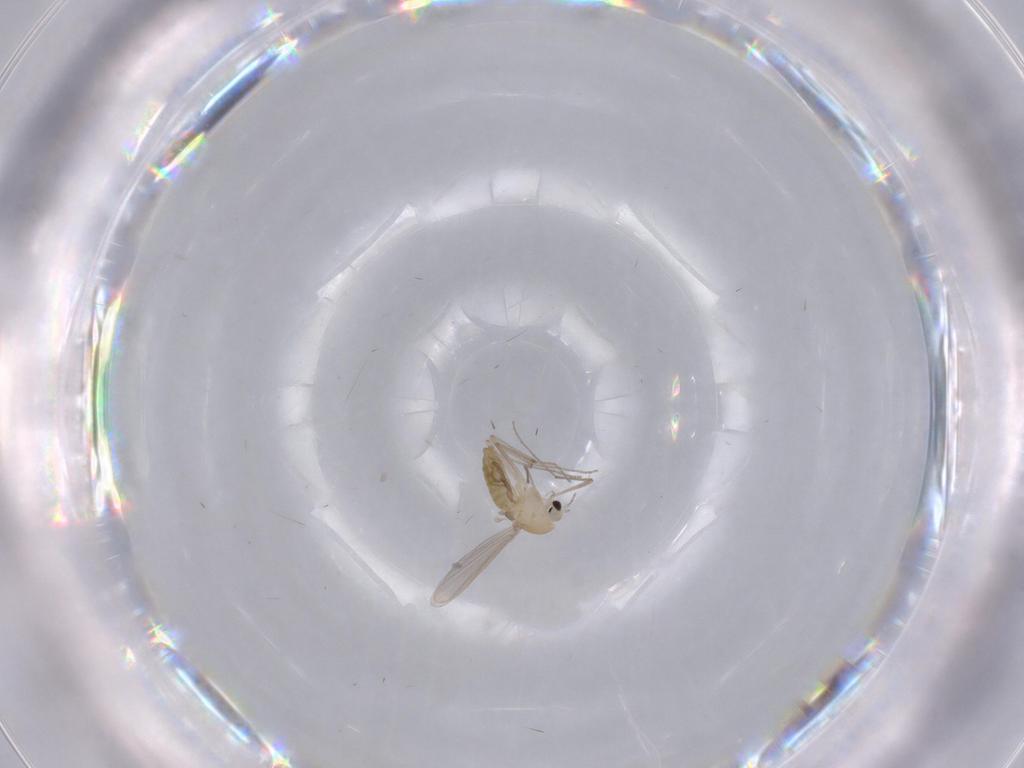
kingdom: Animalia
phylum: Arthropoda
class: Insecta
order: Diptera
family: Chironomidae
